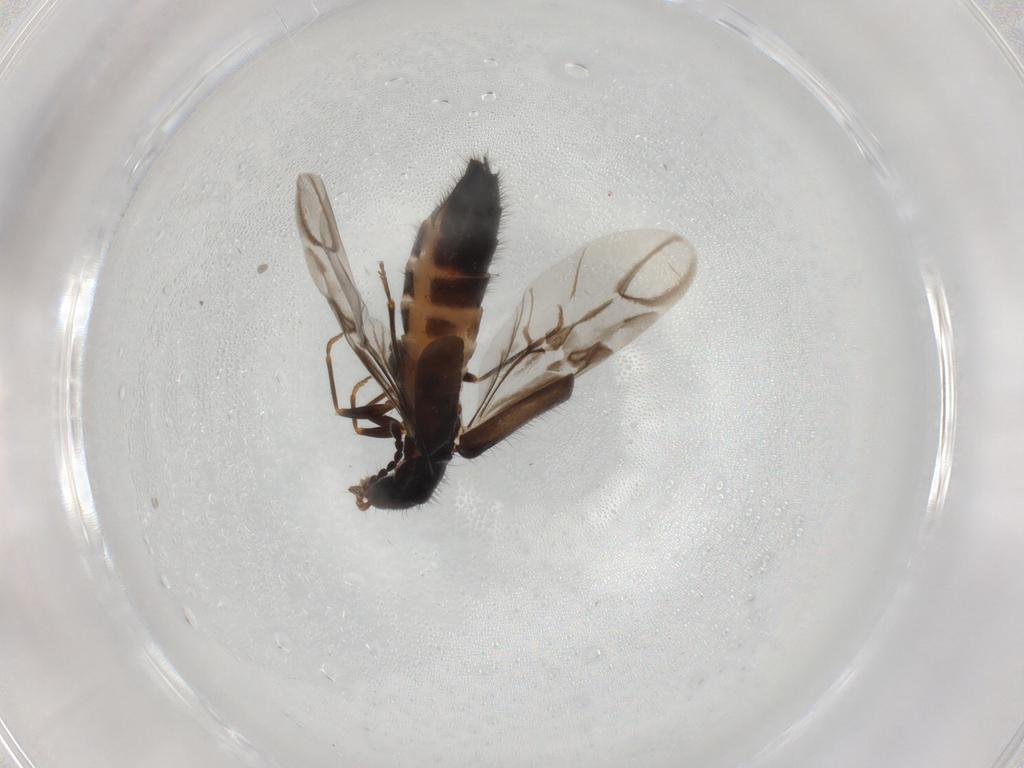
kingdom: Animalia
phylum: Arthropoda
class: Insecta
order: Coleoptera
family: Melyridae
